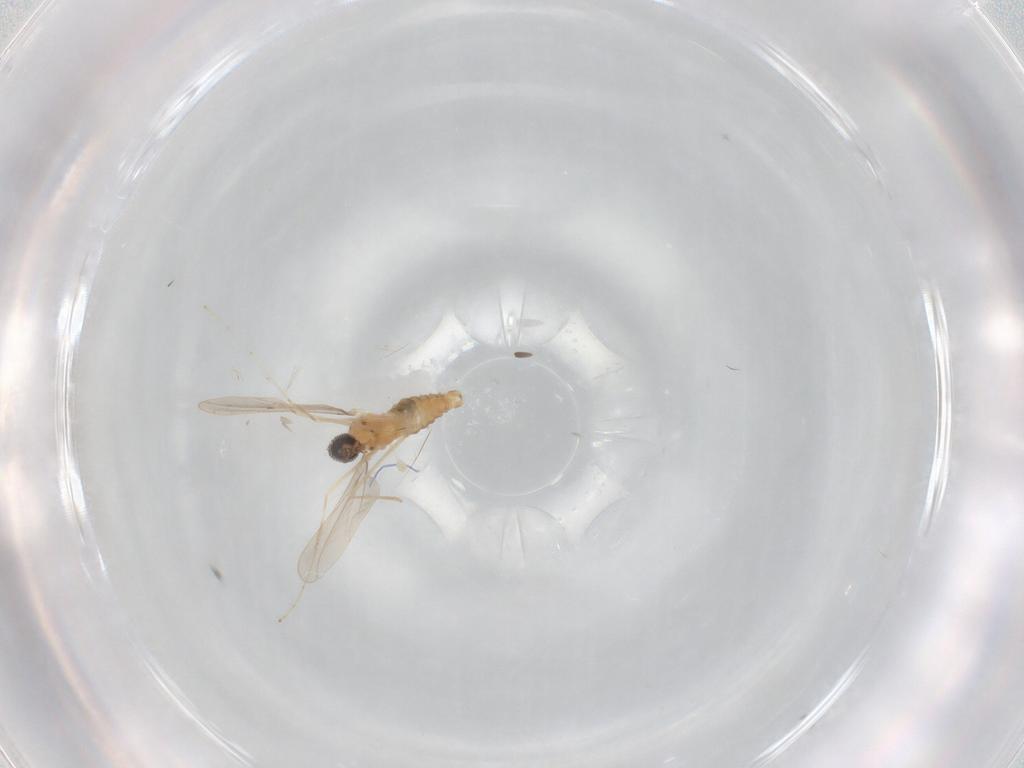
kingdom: Animalia
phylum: Arthropoda
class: Insecta
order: Diptera
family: Cecidomyiidae
